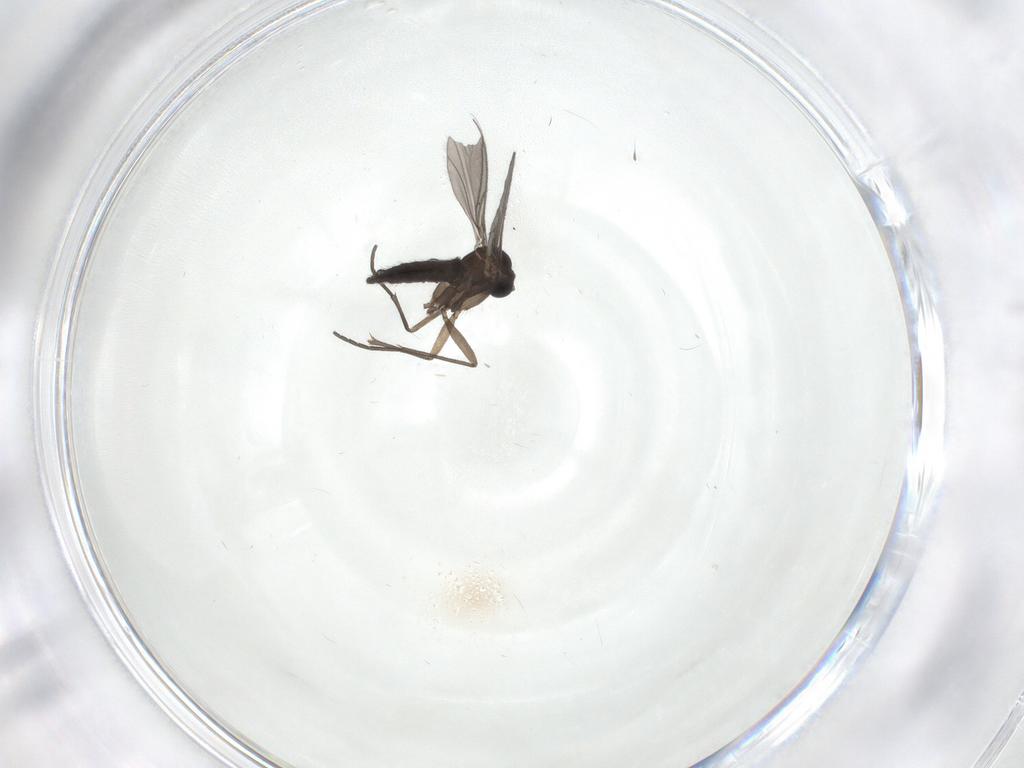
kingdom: Animalia
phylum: Arthropoda
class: Insecta
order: Diptera
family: Sciaridae
